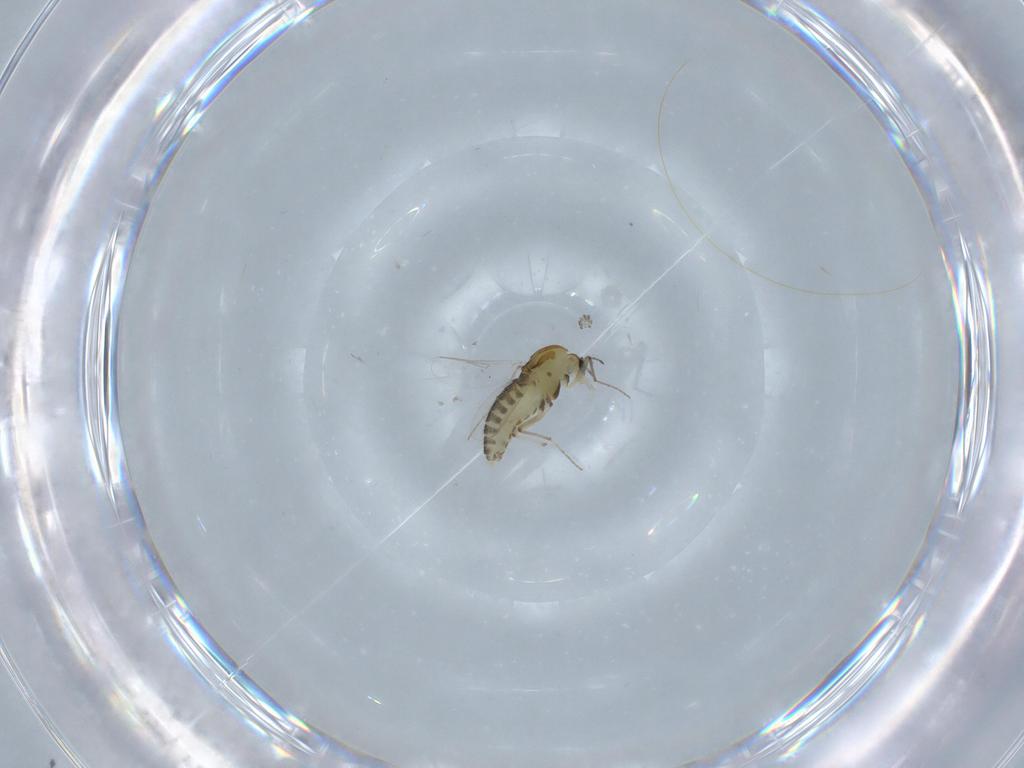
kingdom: Animalia
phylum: Arthropoda
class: Insecta
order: Diptera
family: Chironomidae
